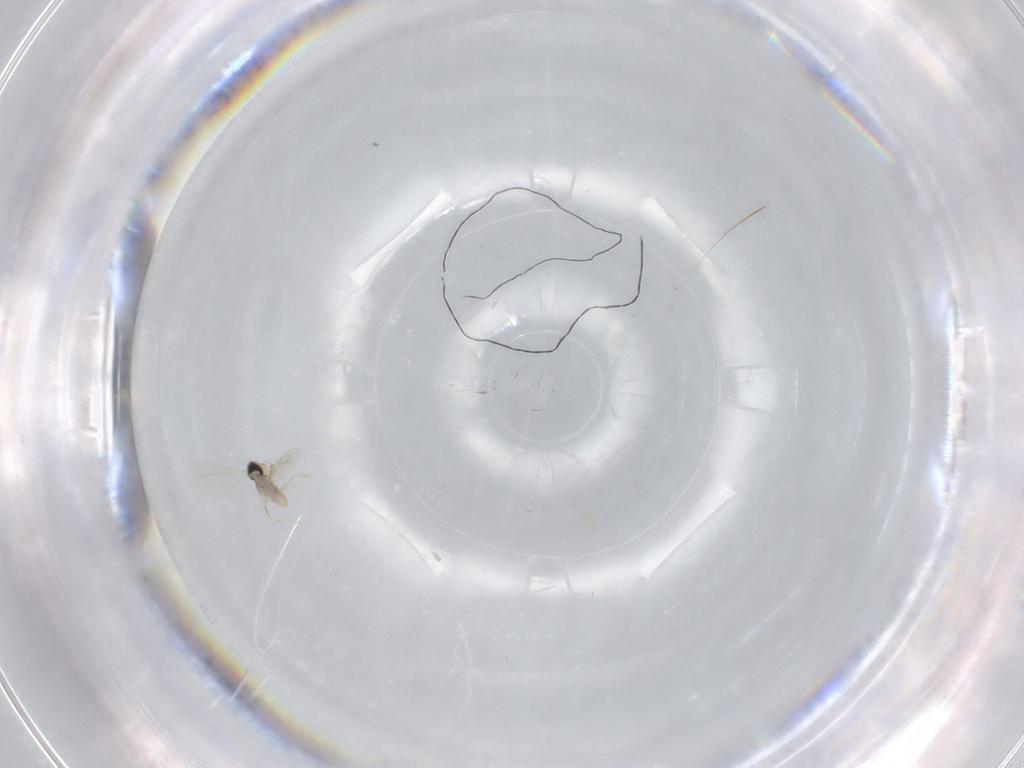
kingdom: Animalia
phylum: Arthropoda
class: Insecta
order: Diptera
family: Cecidomyiidae
